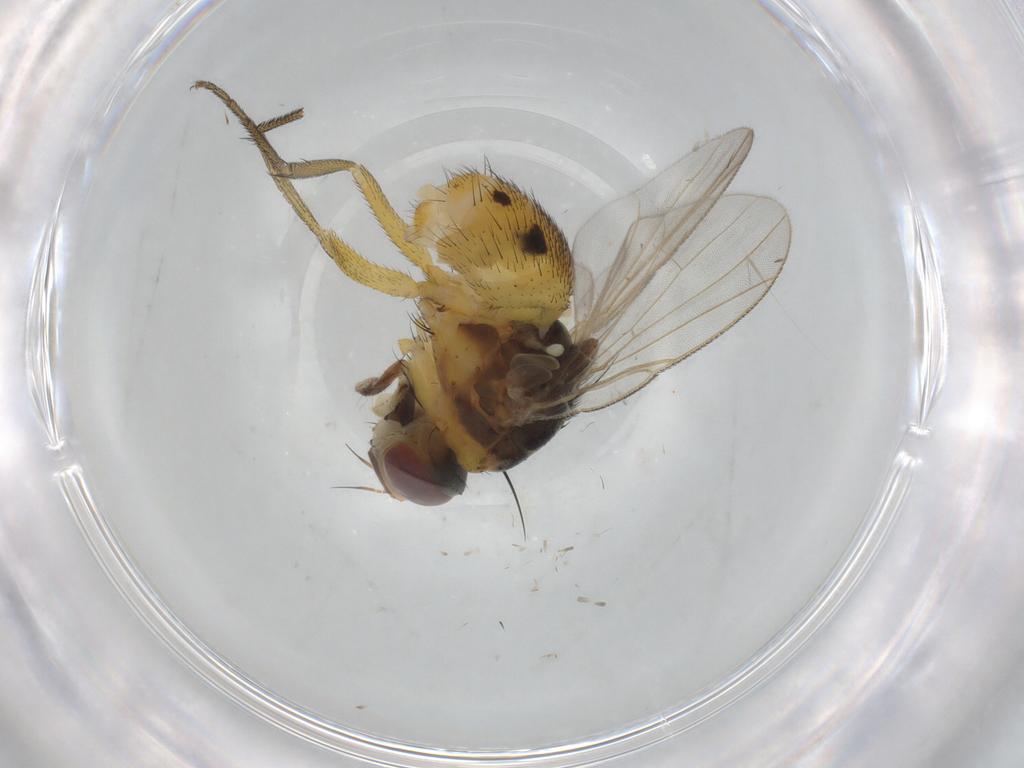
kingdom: Animalia
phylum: Arthropoda
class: Insecta
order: Diptera
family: Muscidae
